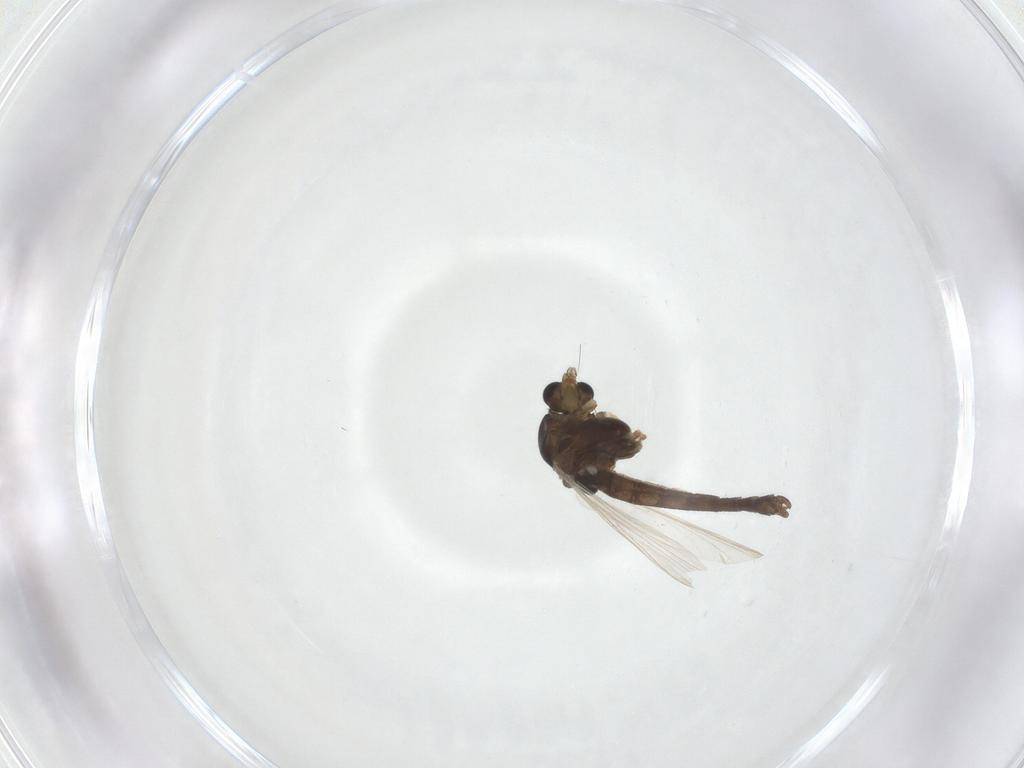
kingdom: Animalia
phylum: Arthropoda
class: Insecta
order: Diptera
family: Chironomidae
